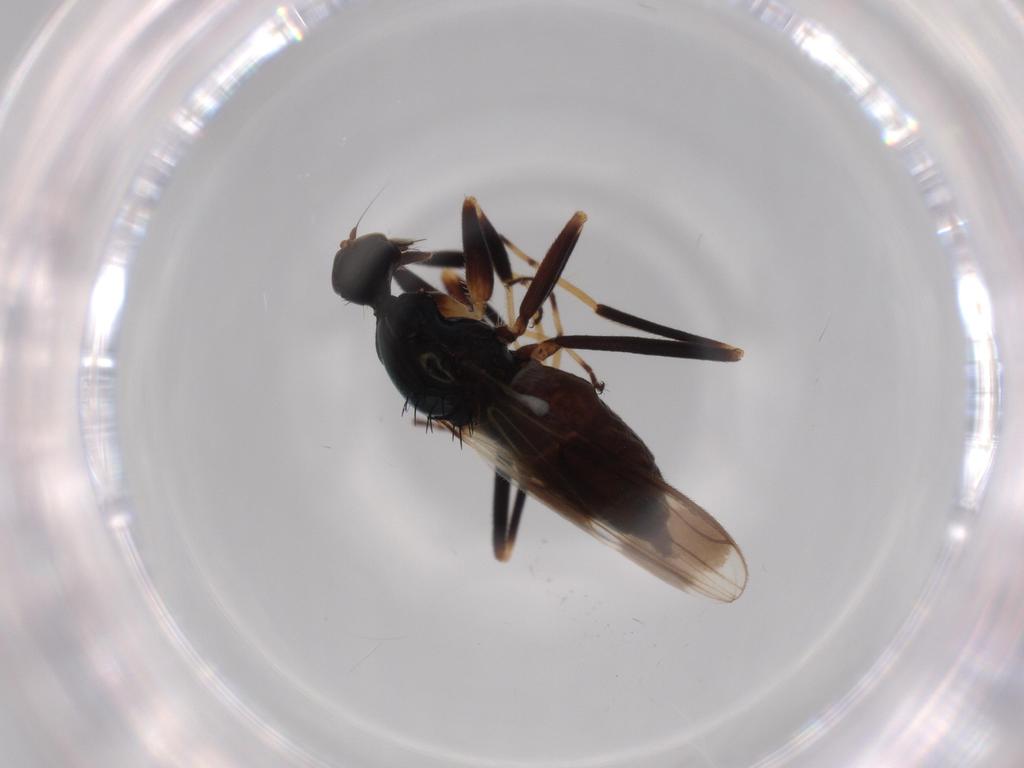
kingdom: Animalia
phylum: Arthropoda
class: Insecta
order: Diptera
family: Hybotidae
